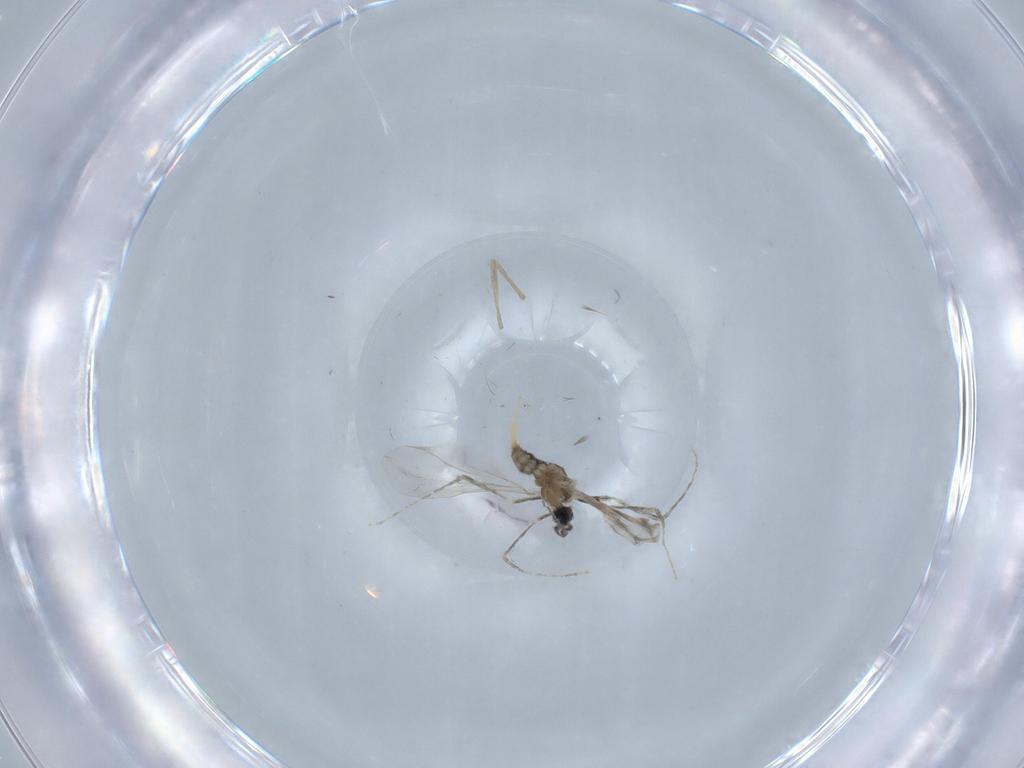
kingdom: Animalia
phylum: Arthropoda
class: Insecta
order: Diptera
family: Cecidomyiidae
